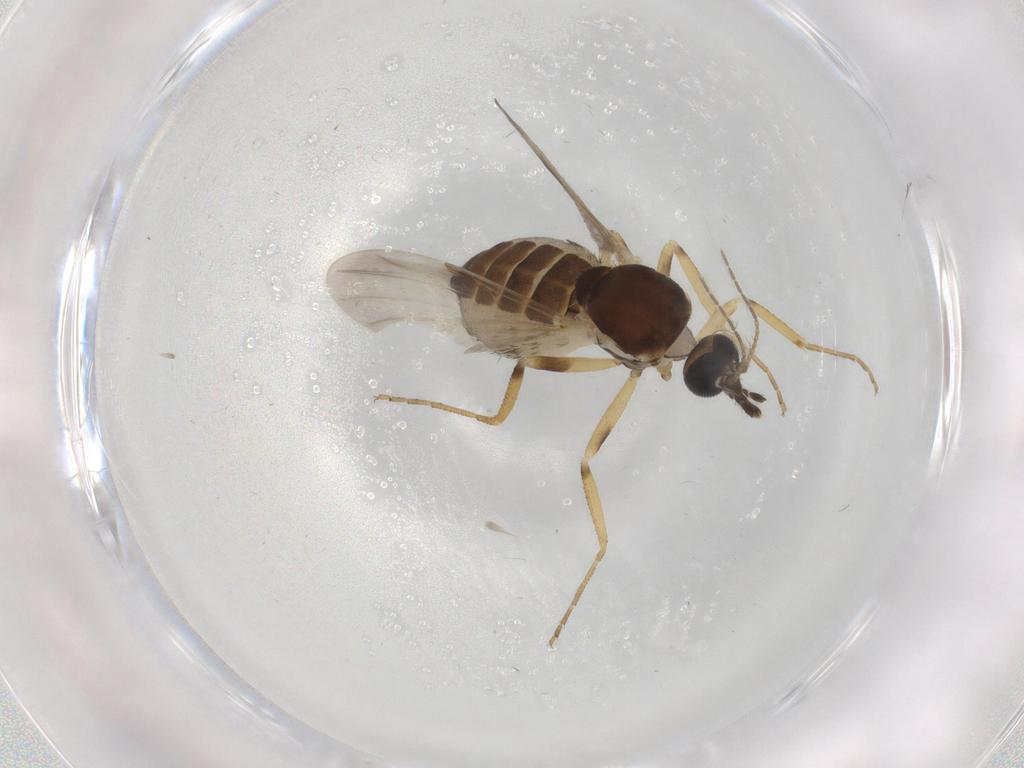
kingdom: Animalia
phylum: Arthropoda
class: Insecta
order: Diptera
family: Ceratopogonidae
